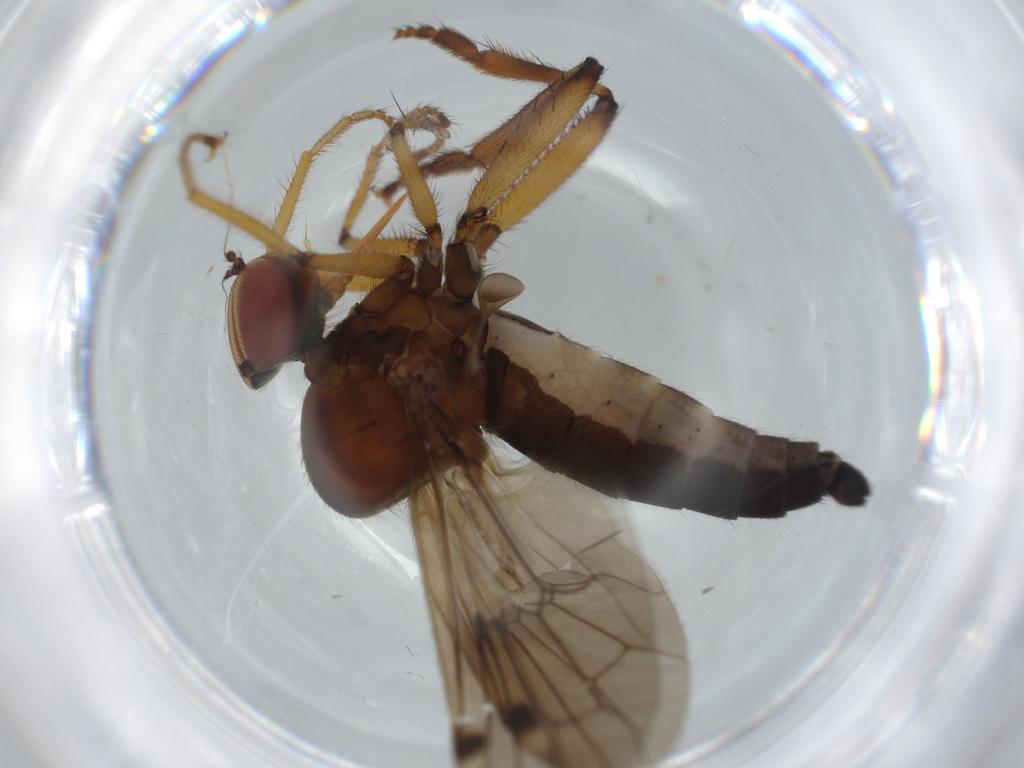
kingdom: Animalia
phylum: Arthropoda
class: Insecta
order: Diptera
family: Hybotidae
